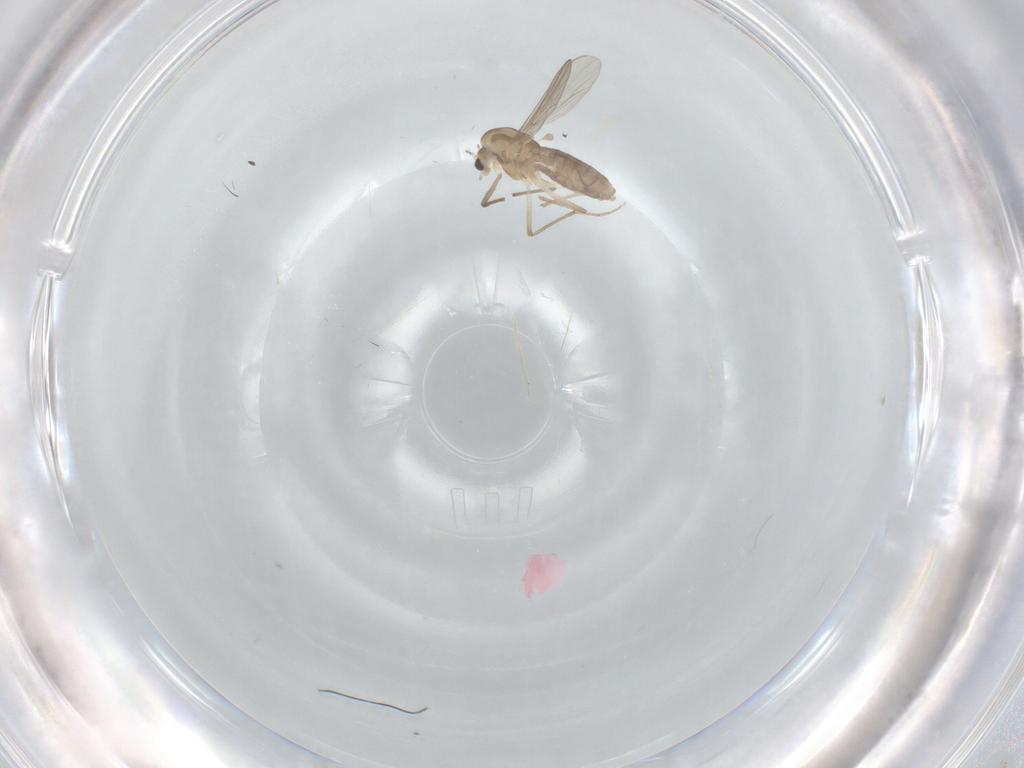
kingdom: Animalia
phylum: Arthropoda
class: Insecta
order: Diptera
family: Chironomidae
